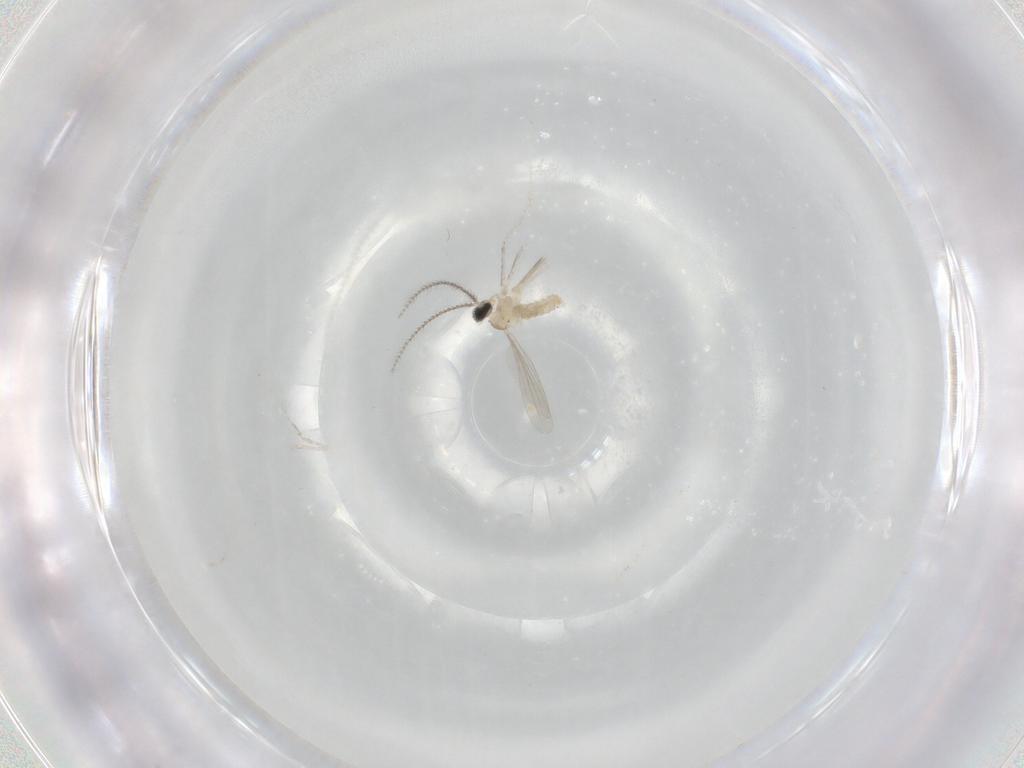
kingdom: Animalia
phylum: Arthropoda
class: Insecta
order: Diptera
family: Cecidomyiidae
